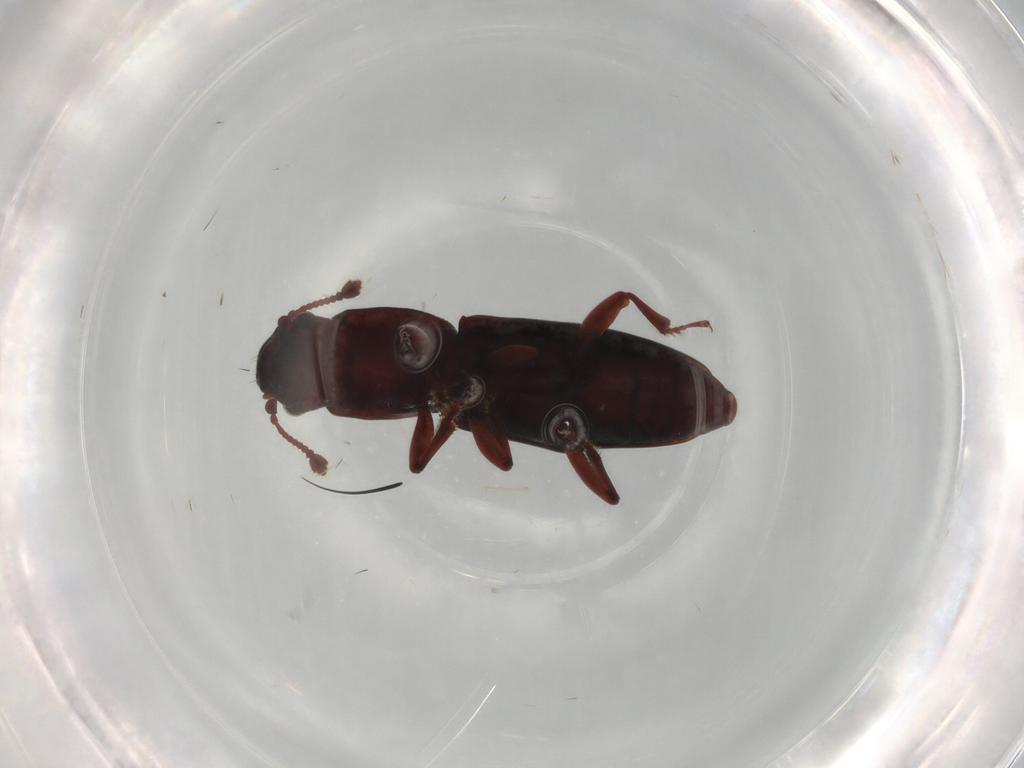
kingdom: Animalia
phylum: Arthropoda
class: Insecta
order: Coleoptera
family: Monotomidae
